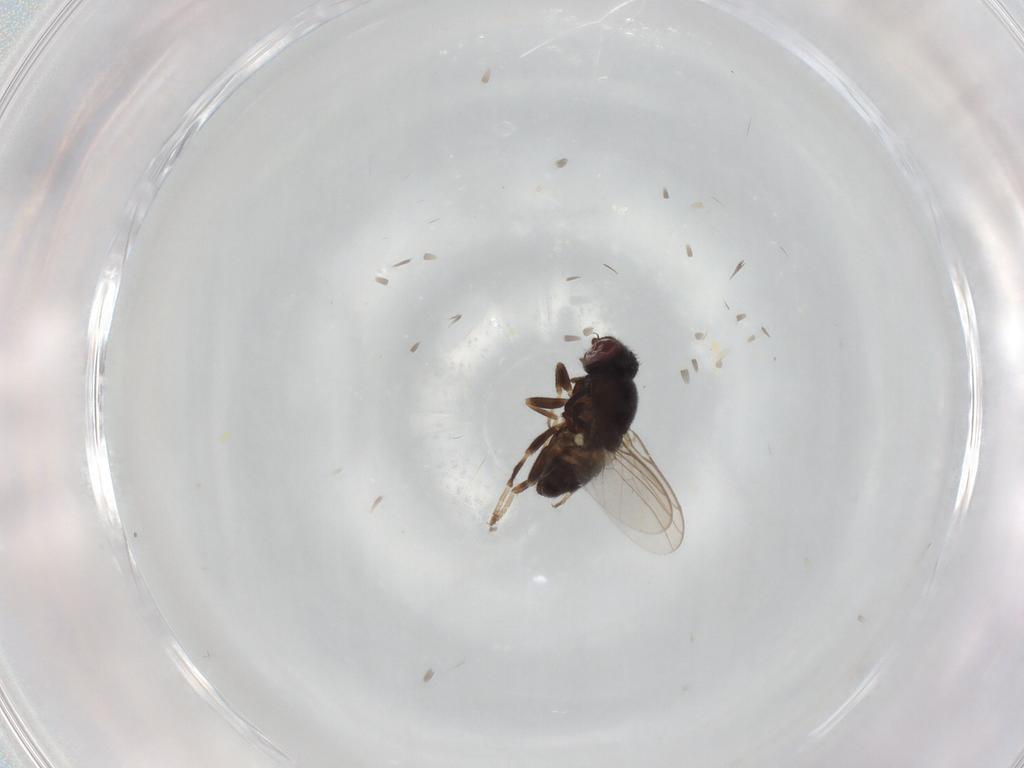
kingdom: Animalia
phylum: Arthropoda
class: Insecta
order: Diptera
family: Chloropidae
